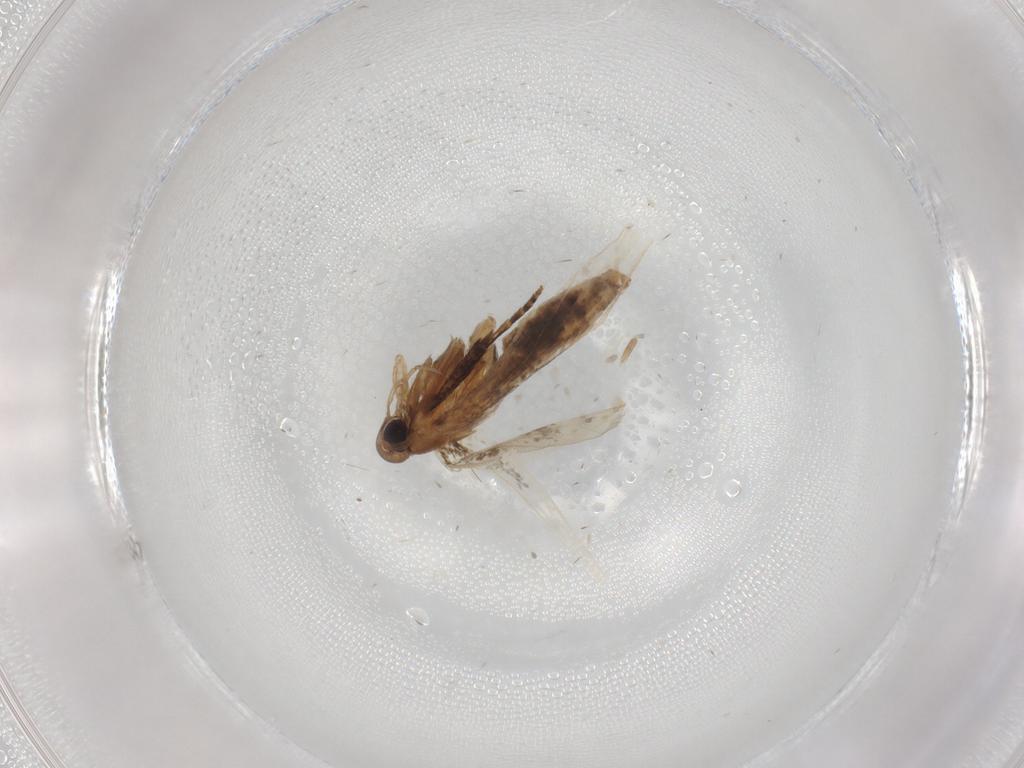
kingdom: Animalia
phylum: Arthropoda
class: Insecta
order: Lepidoptera
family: Cosmopterigidae
